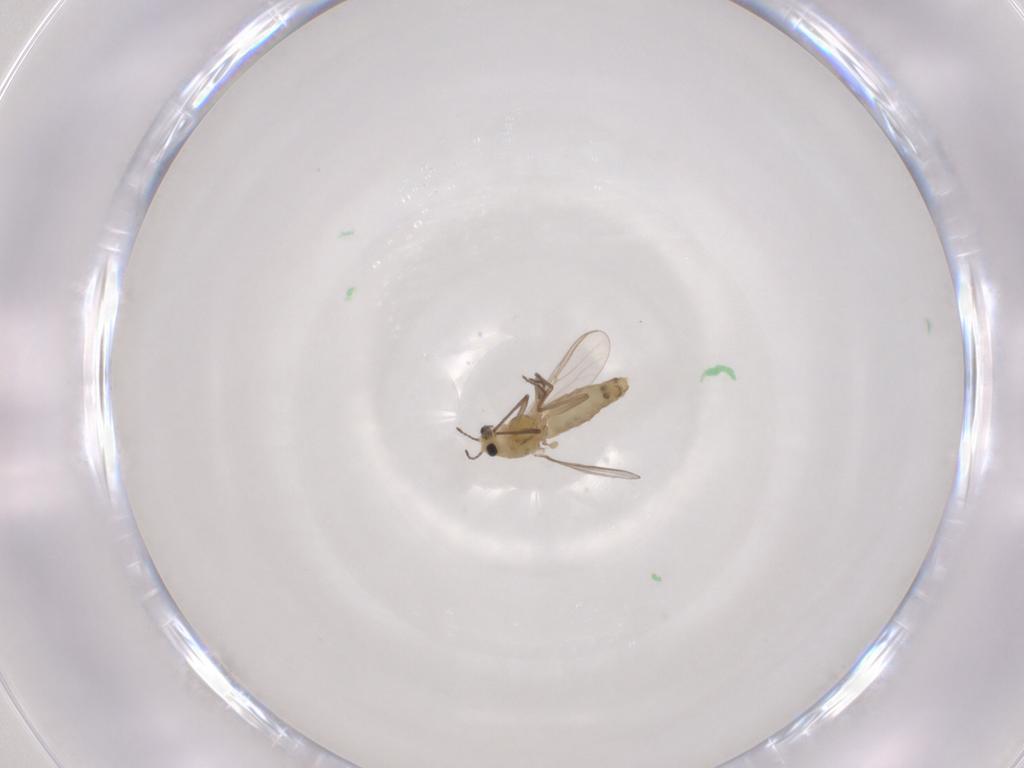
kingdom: Animalia
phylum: Arthropoda
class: Insecta
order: Diptera
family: Chironomidae
